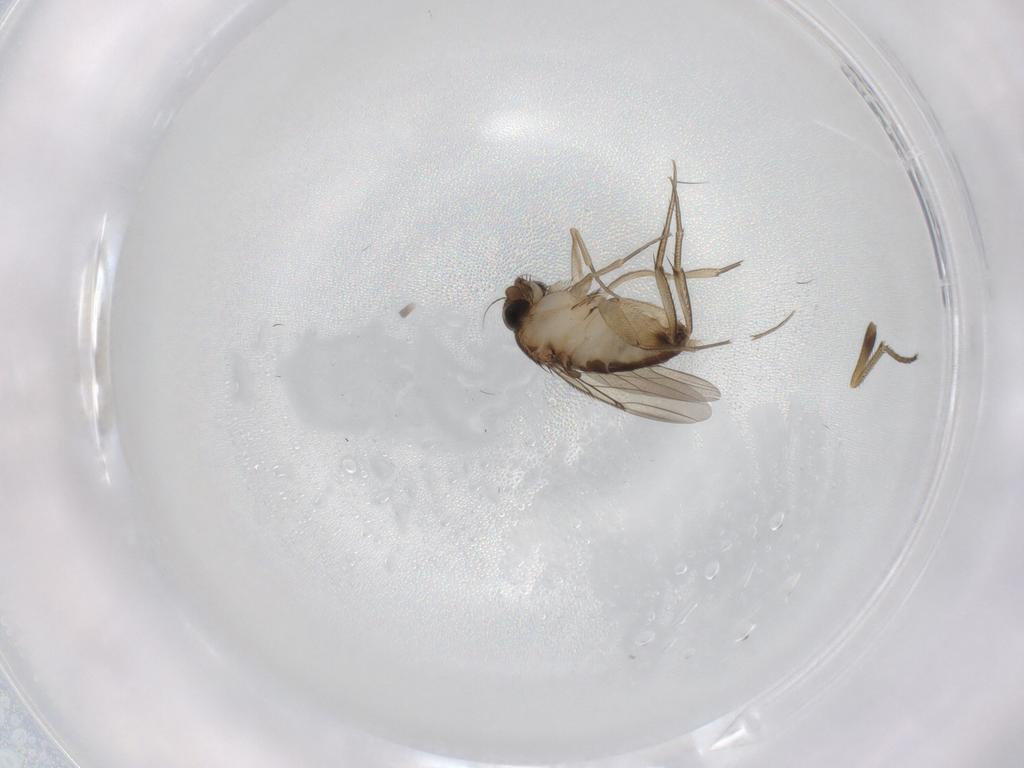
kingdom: Animalia
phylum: Arthropoda
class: Insecta
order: Diptera
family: Phoridae
